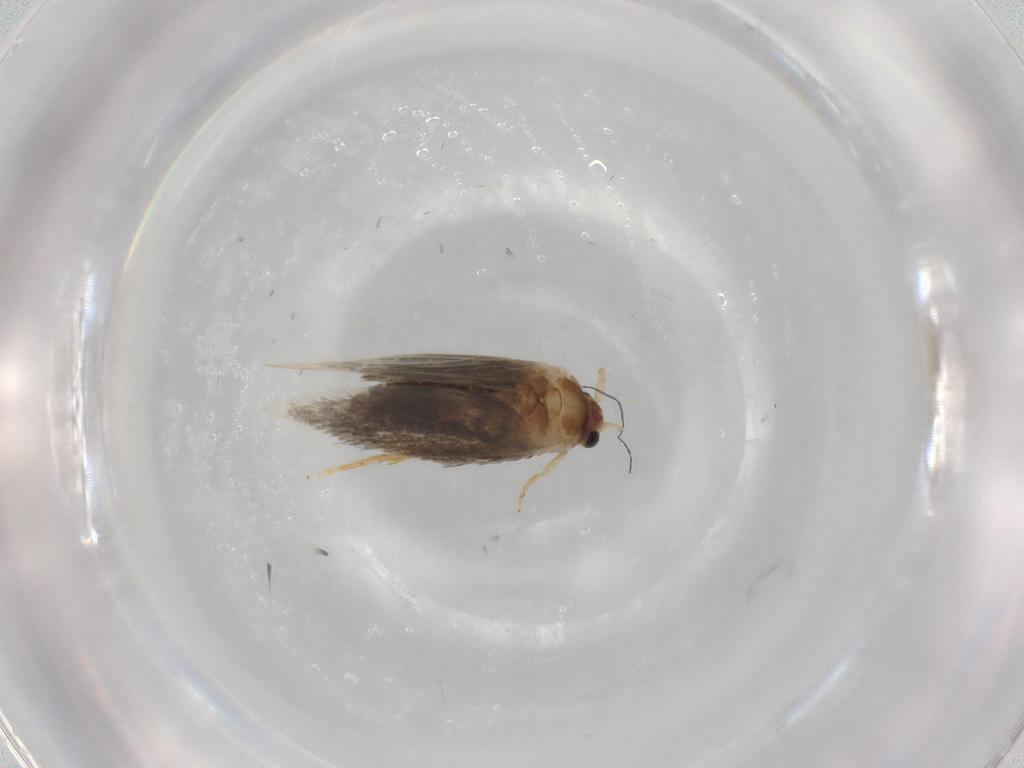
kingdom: Animalia
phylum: Arthropoda
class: Insecta
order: Lepidoptera
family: Nepticulidae
